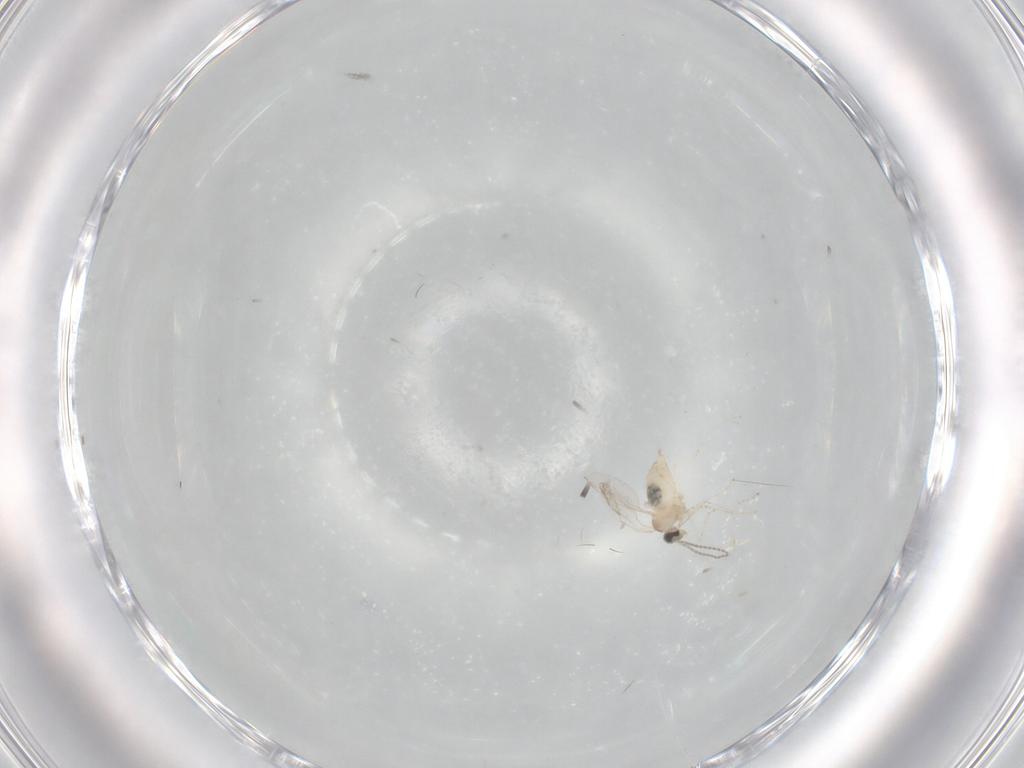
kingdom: Animalia
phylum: Arthropoda
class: Insecta
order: Diptera
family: Cecidomyiidae
